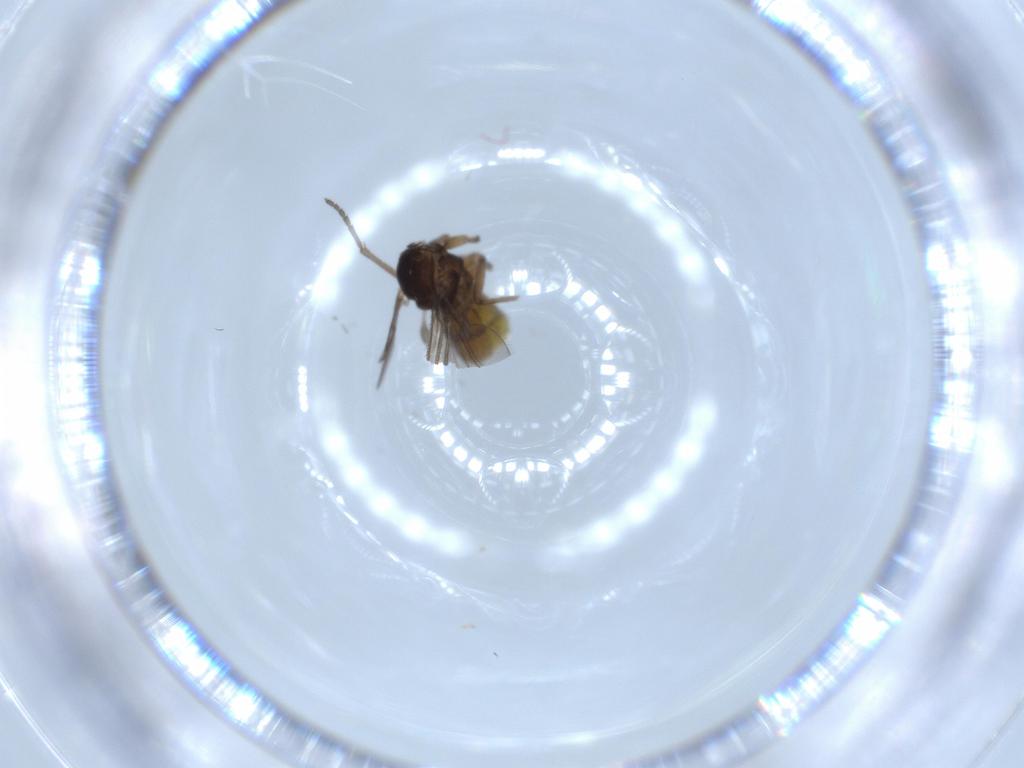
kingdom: Animalia
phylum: Arthropoda
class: Insecta
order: Diptera
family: Sciaridae
